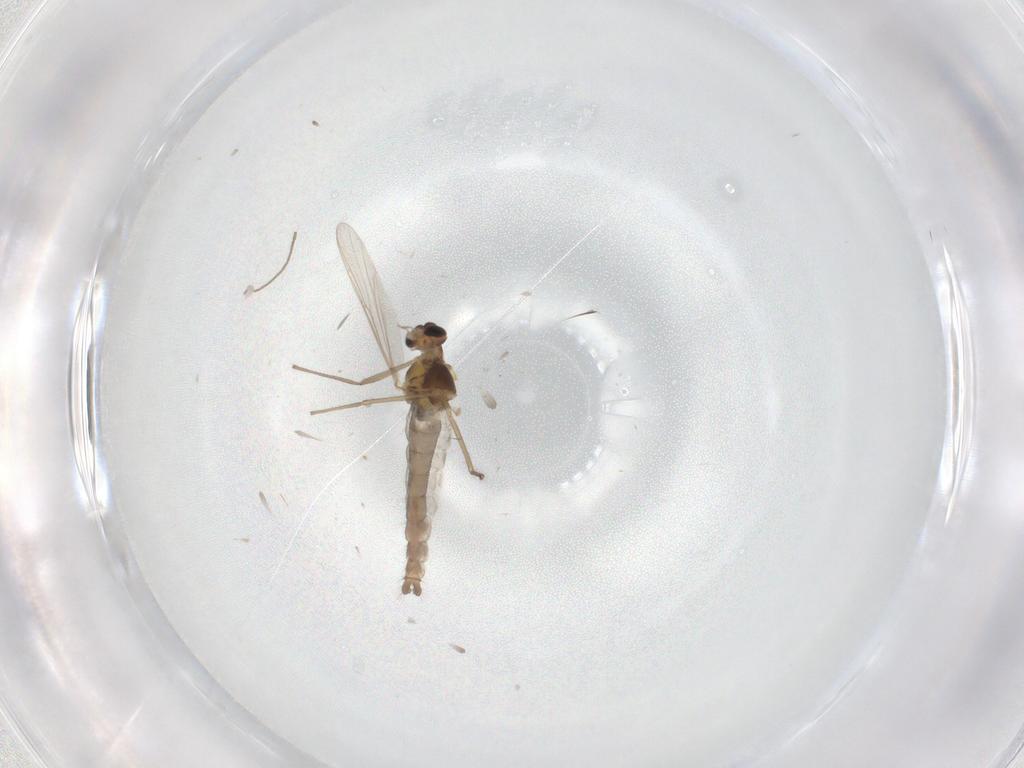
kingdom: Animalia
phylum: Arthropoda
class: Insecta
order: Diptera
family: Chironomidae
